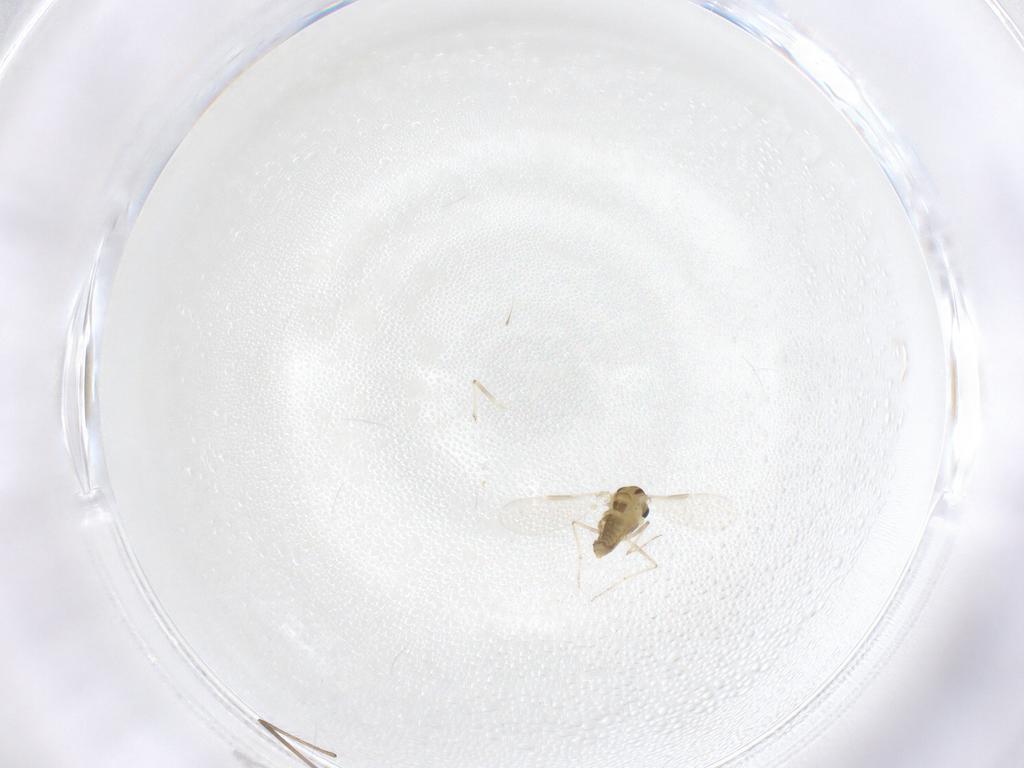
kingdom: Animalia
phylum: Arthropoda
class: Insecta
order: Diptera
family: Chironomidae
